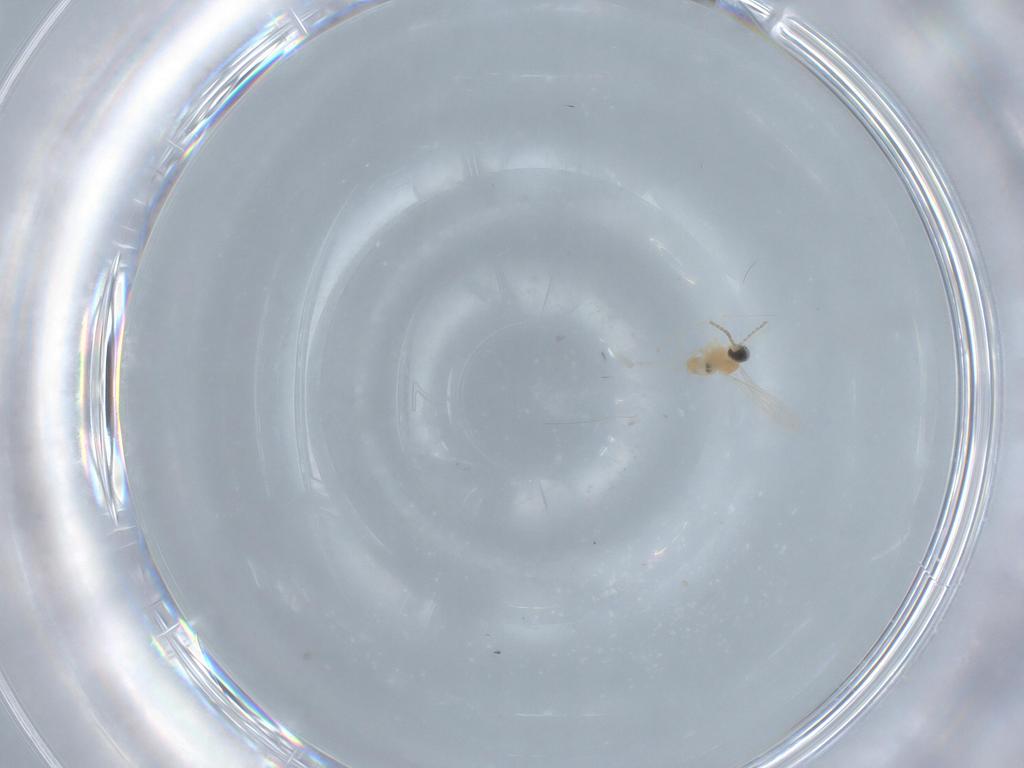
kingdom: Animalia
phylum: Arthropoda
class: Insecta
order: Diptera
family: Cecidomyiidae
